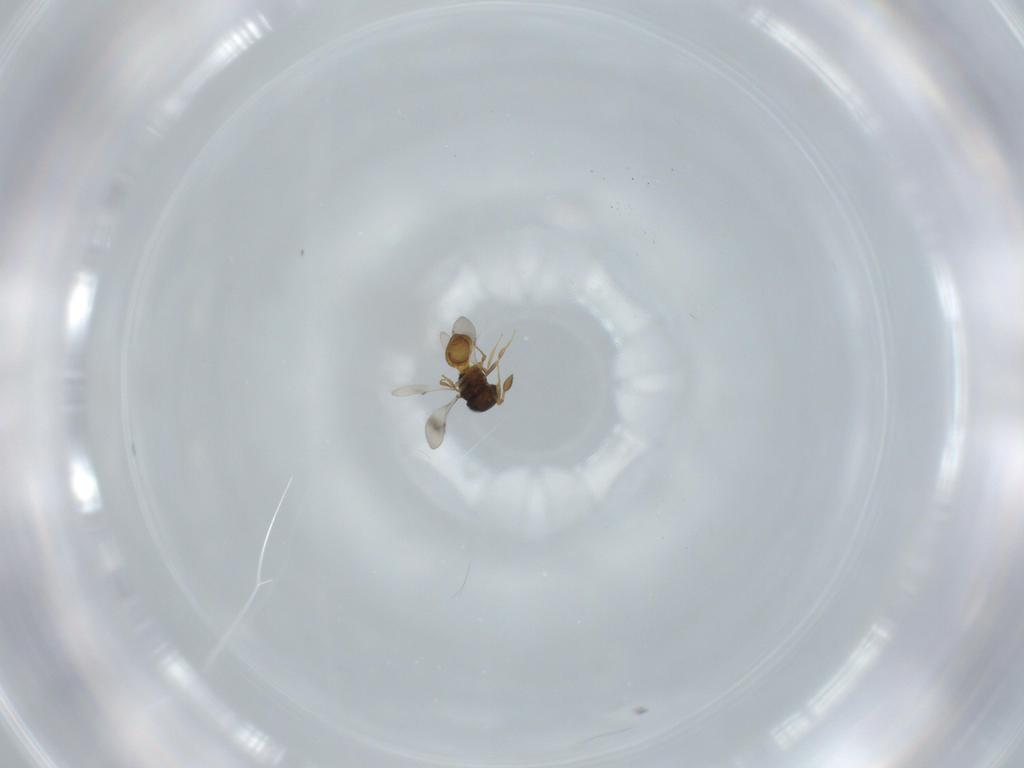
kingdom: Animalia
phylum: Arthropoda
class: Insecta
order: Hymenoptera
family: Scelionidae
